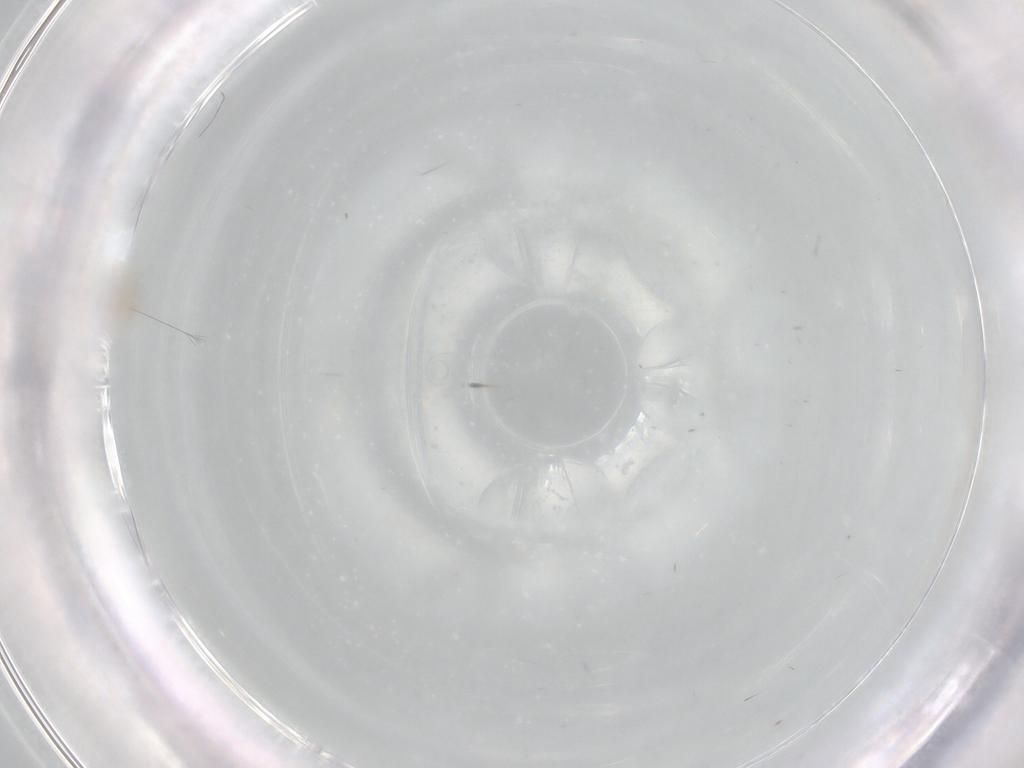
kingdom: Animalia
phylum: Arthropoda
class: Insecta
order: Diptera
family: Cecidomyiidae
